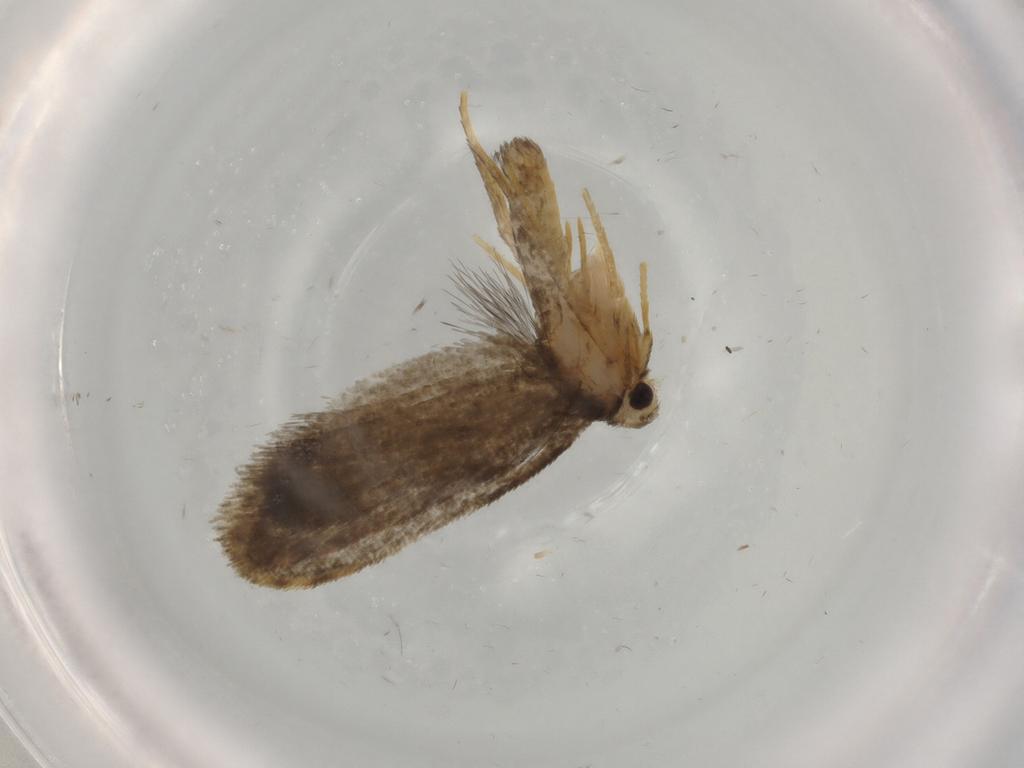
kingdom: Animalia
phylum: Arthropoda
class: Insecta
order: Lepidoptera
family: Psychidae
